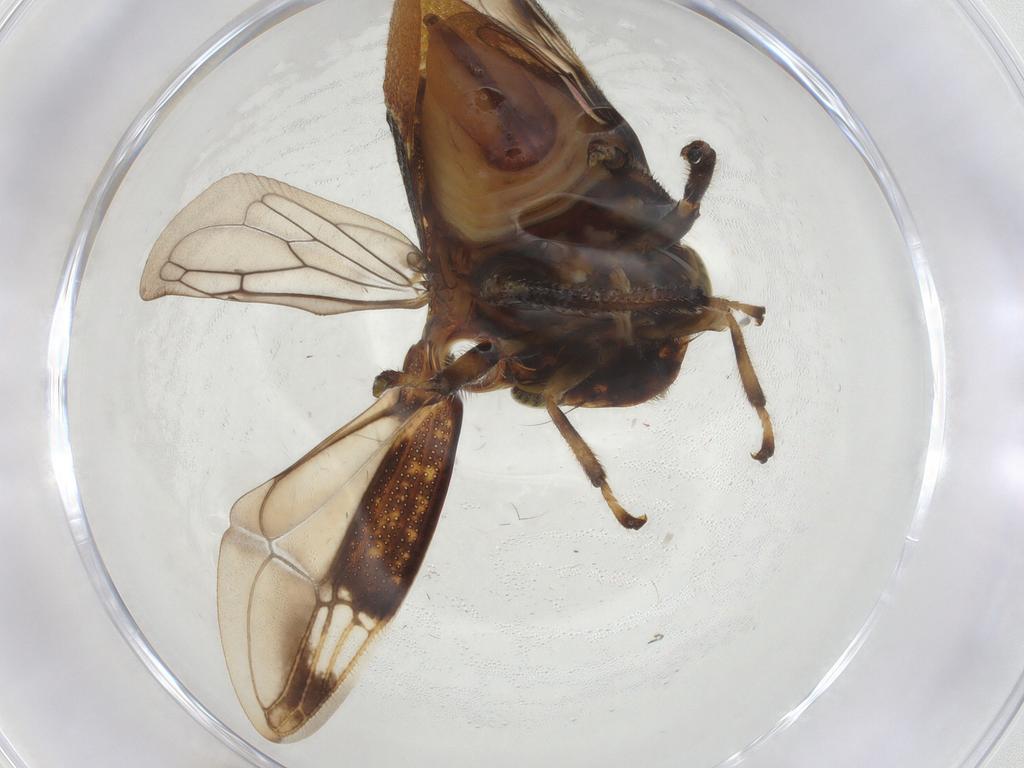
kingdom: Animalia
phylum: Arthropoda
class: Insecta
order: Hemiptera
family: Membracidae
